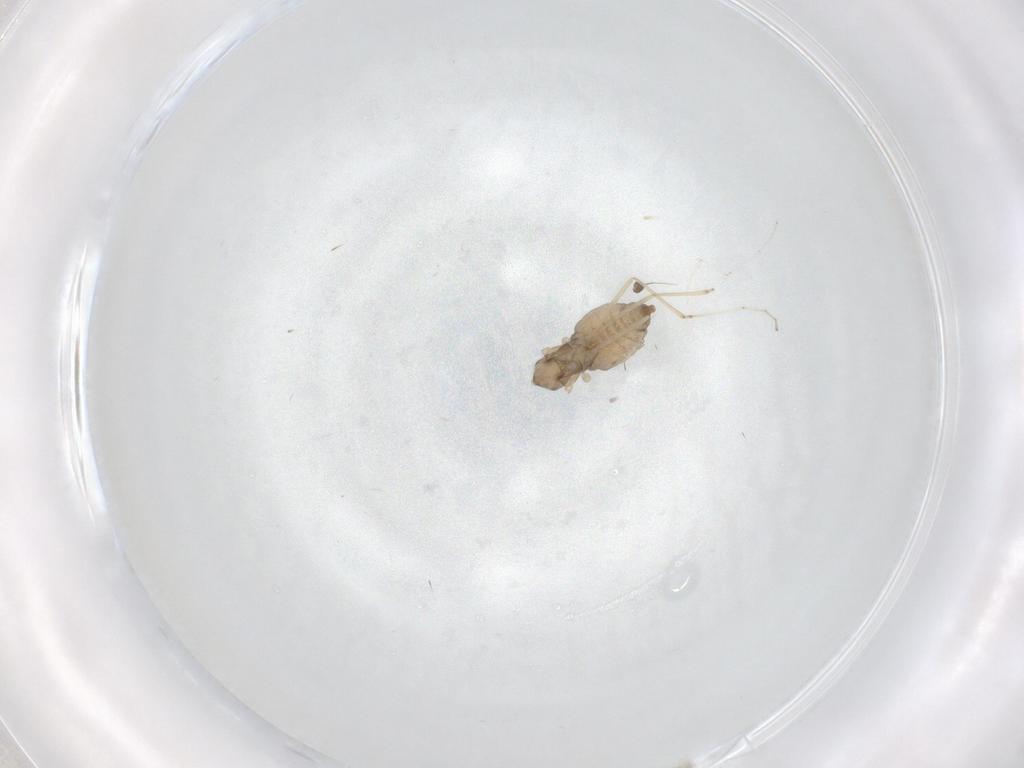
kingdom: Animalia
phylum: Arthropoda
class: Insecta
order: Diptera
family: Cecidomyiidae
